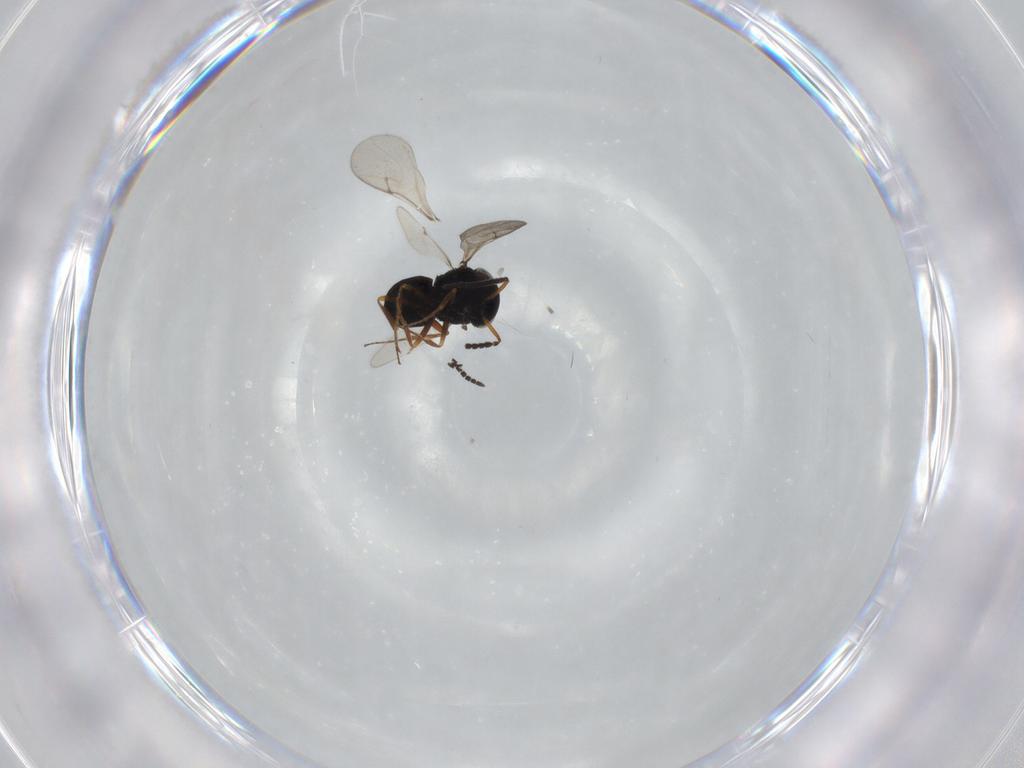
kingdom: Animalia
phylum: Arthropoda
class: Insecta
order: Hymenoptera
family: Scelionidae
